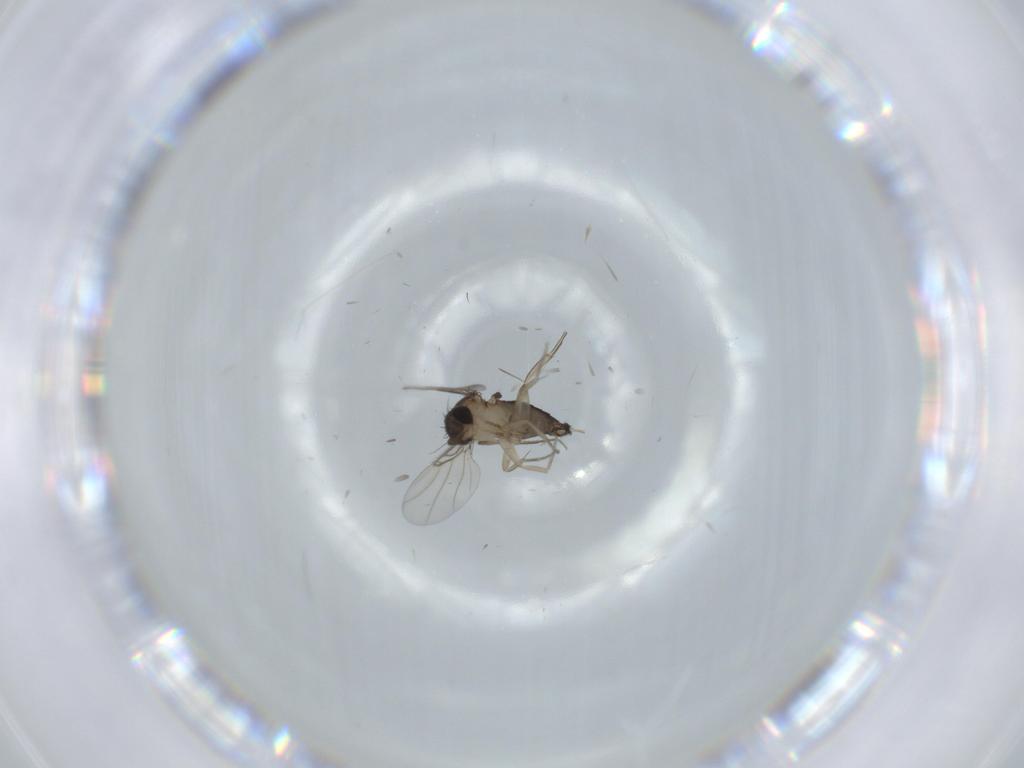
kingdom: Animalia
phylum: Arthropoda
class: Insecta
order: Diptera
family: Phoridae
